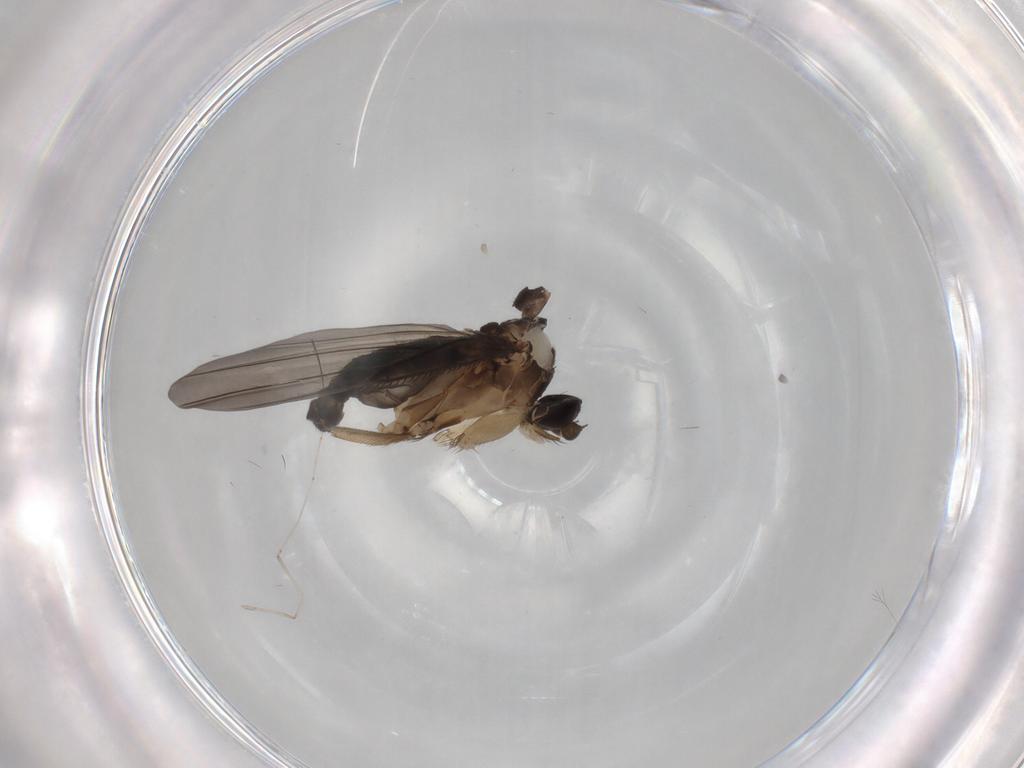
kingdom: Animalia
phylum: Arthropoda
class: Insecta
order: Diptera
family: Phoridae
